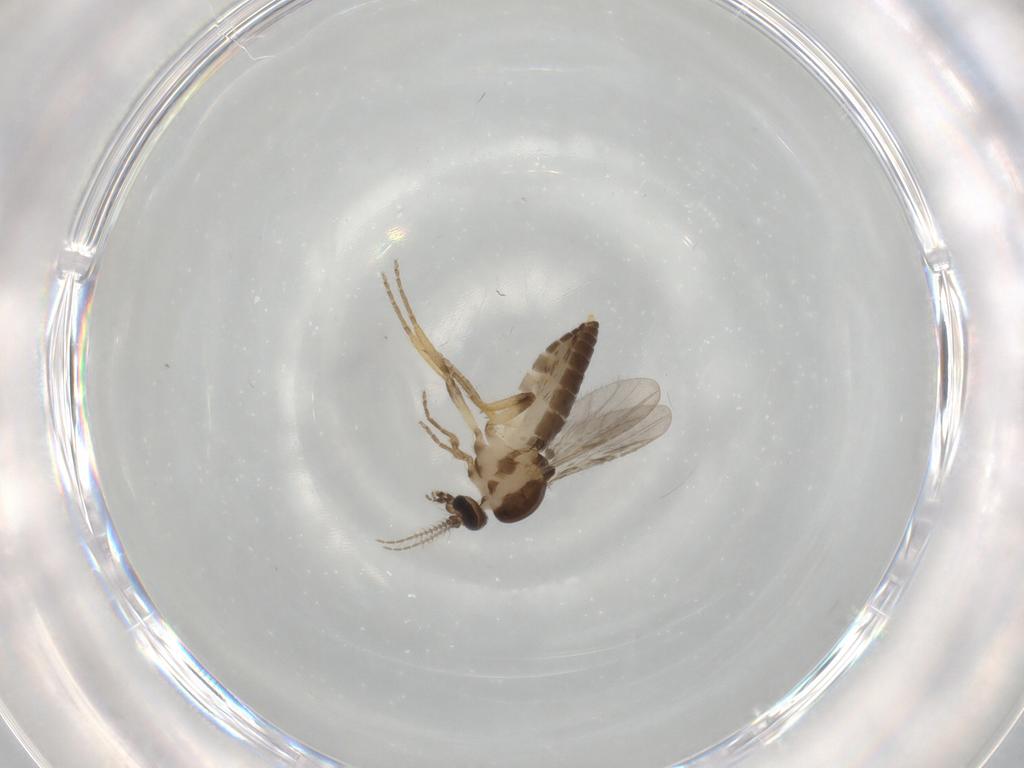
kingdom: Animalia
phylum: Arthropoda
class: Insecta
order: Diptera
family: Ceratopogonidae
